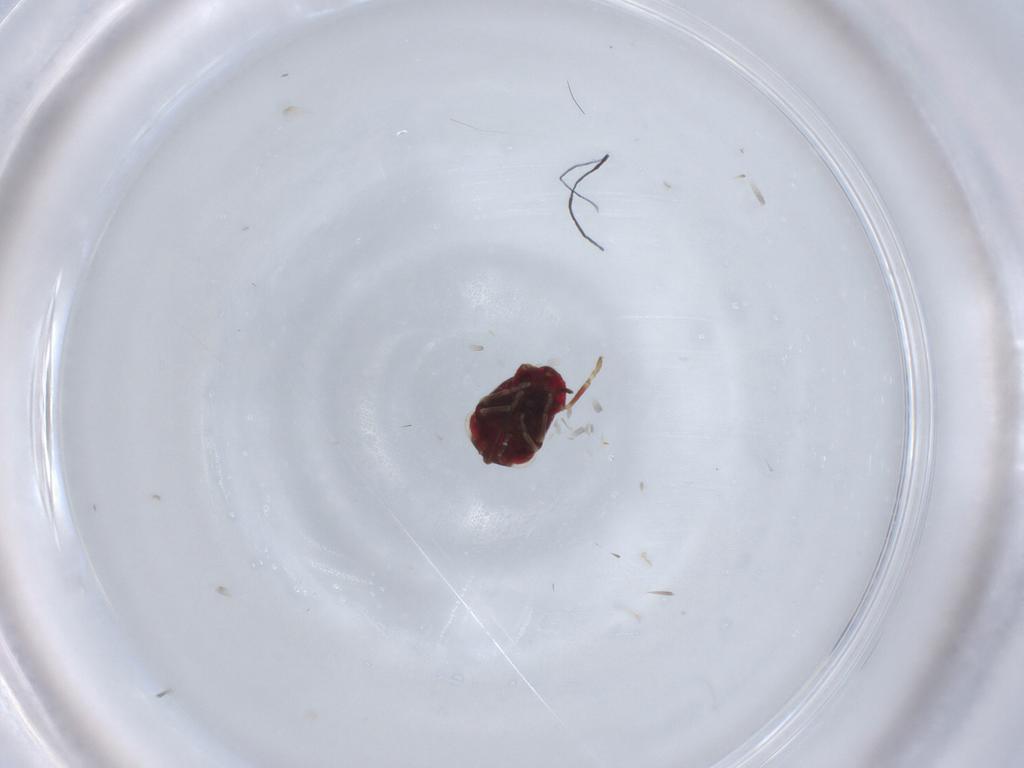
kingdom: Animalia
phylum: Arthropoda
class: Insecta
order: Hemiptera
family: Geocoridae
